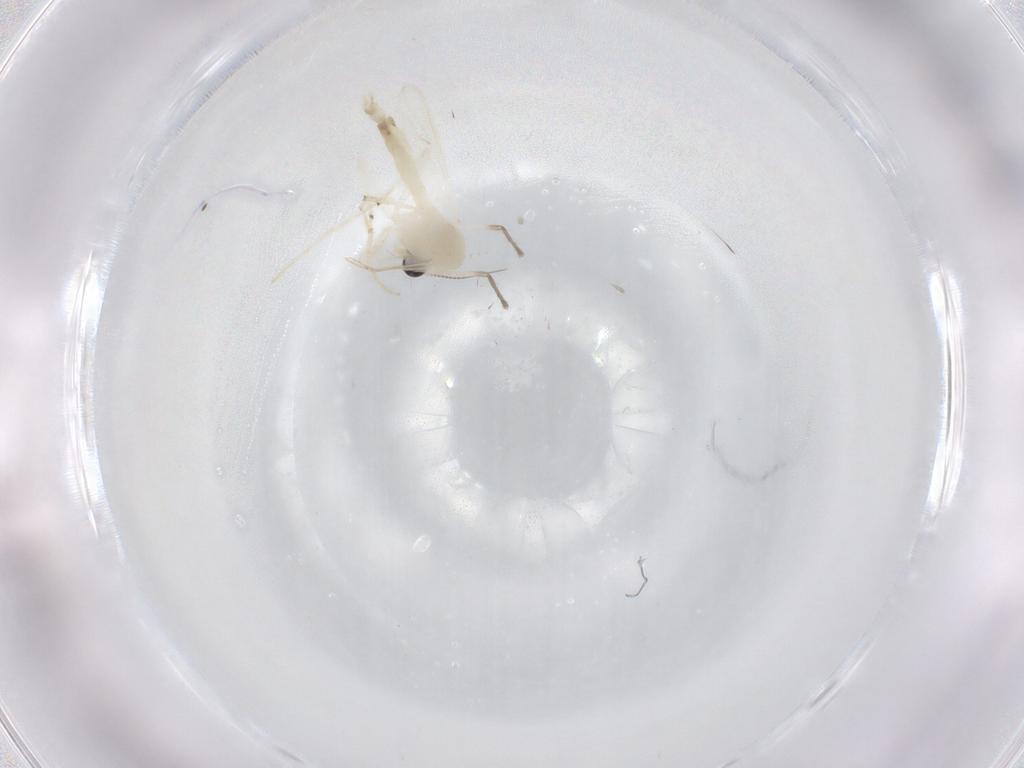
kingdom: Animalia
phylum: Arthropoda
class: Insecta
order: Diptera
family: Chironomidae
